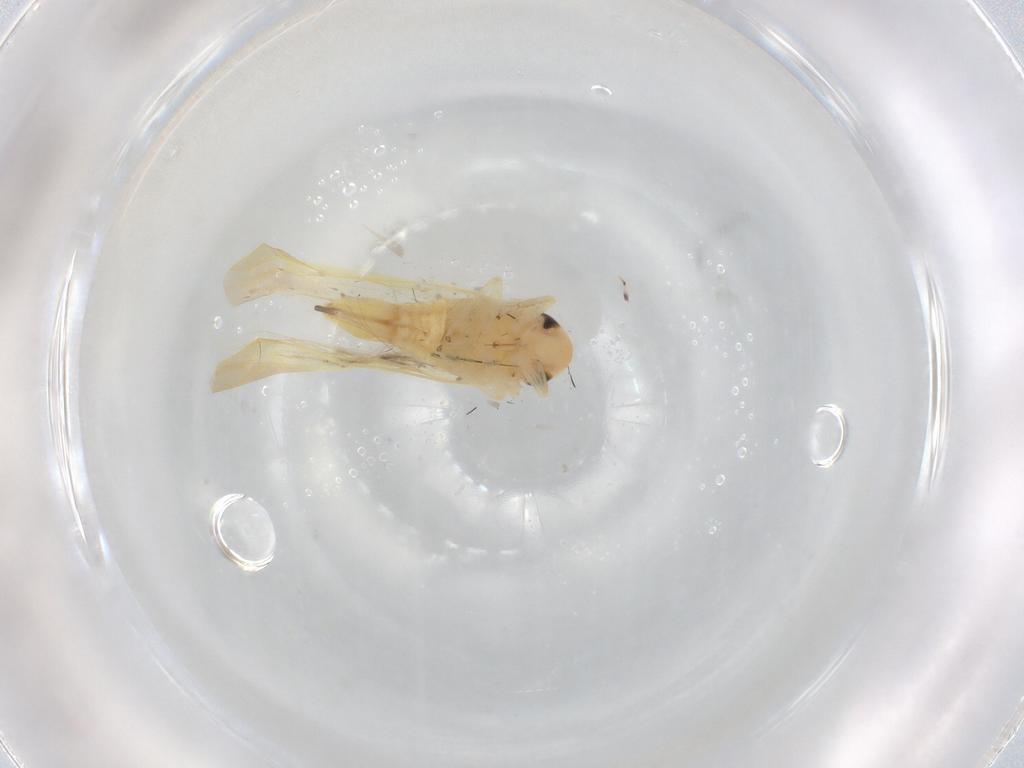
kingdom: Animalia
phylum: Arthropoda
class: Insecta
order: Hemiptera
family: Cicadellidae
